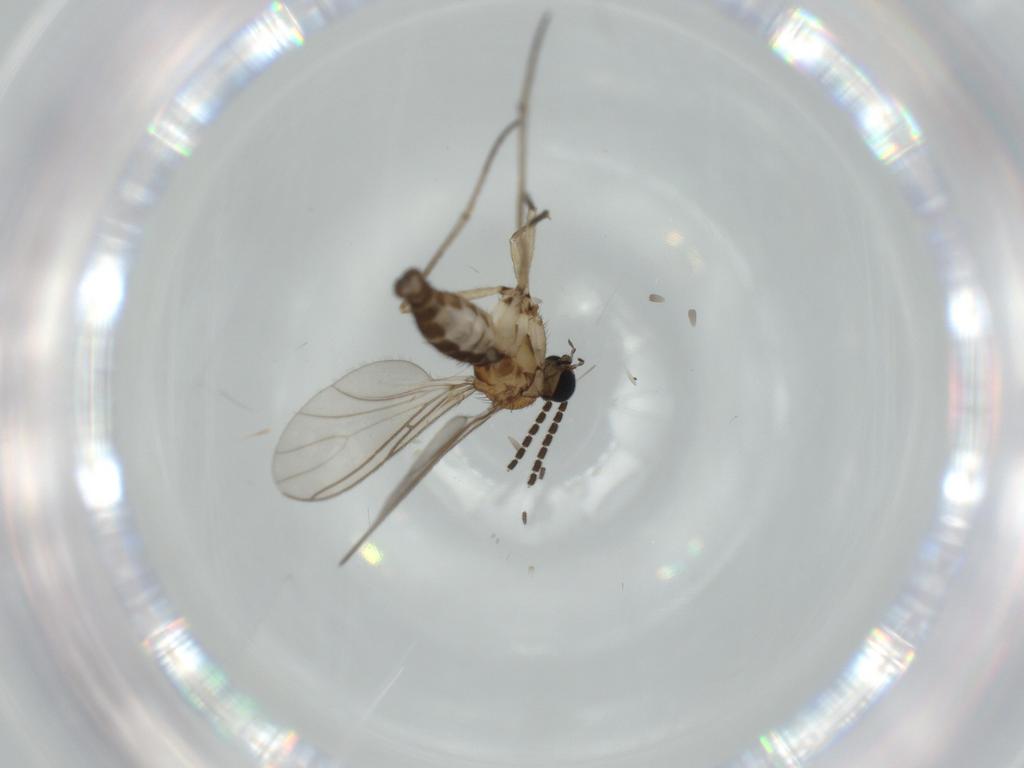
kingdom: Animalia
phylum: Arthropoda
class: Insecta
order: Diptera
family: Sciaridae
